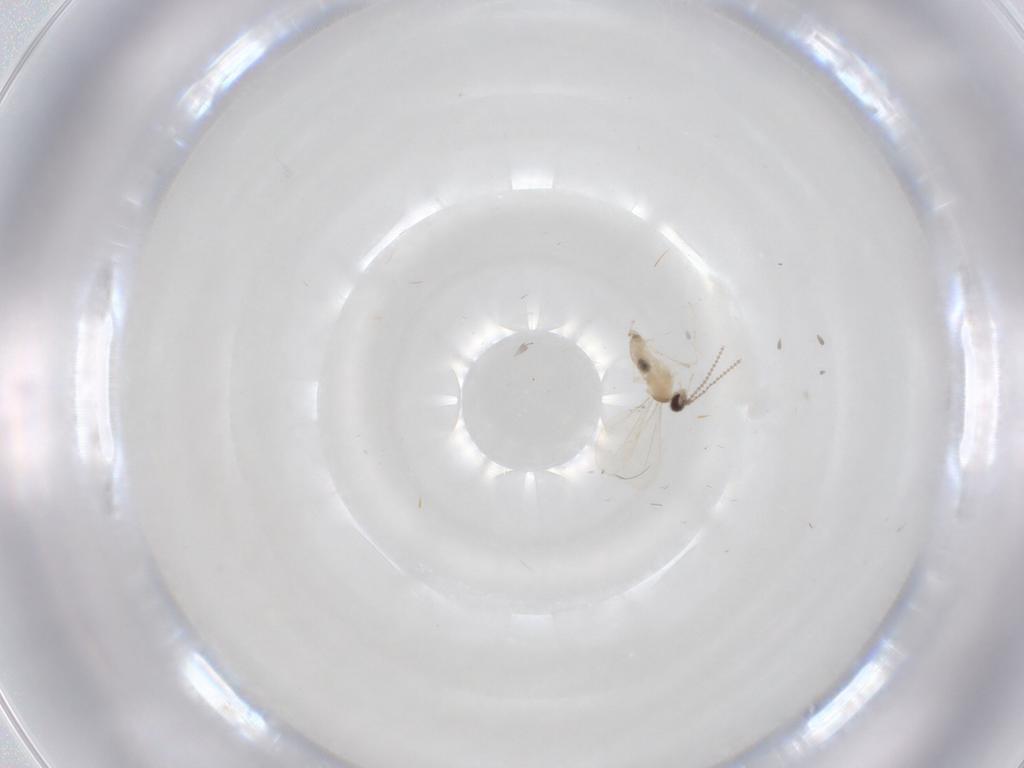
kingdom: Animalia
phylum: Arthropoda
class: Insecta
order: Diptera
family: Cecidomyiidae
